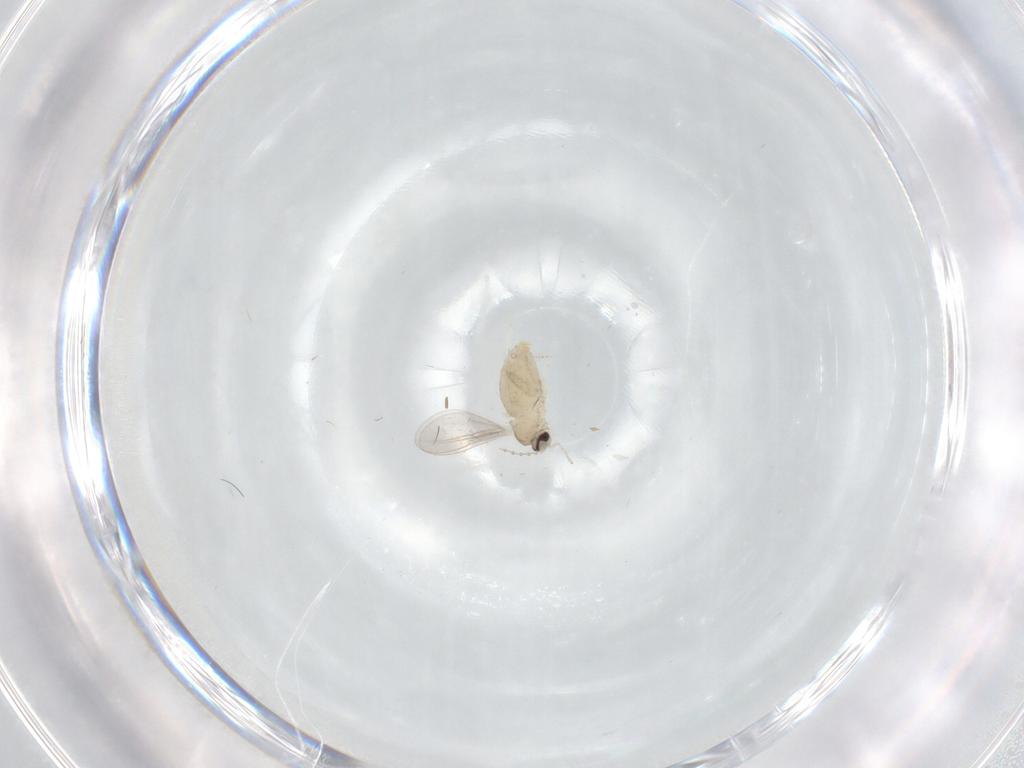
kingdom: Animalia
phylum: Arthropoda
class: Insecta
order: Diptera
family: Cecidomyiidae
